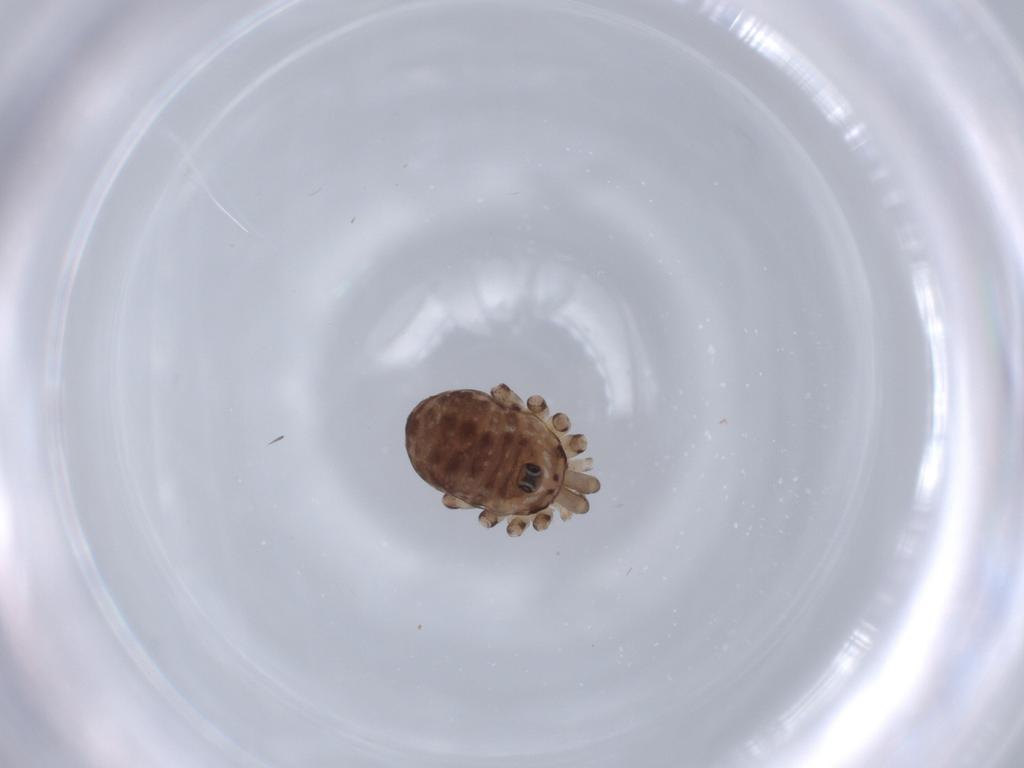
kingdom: Animalia
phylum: Arthropoda
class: Arachnida
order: Opiliones
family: Sclerosomatidae
